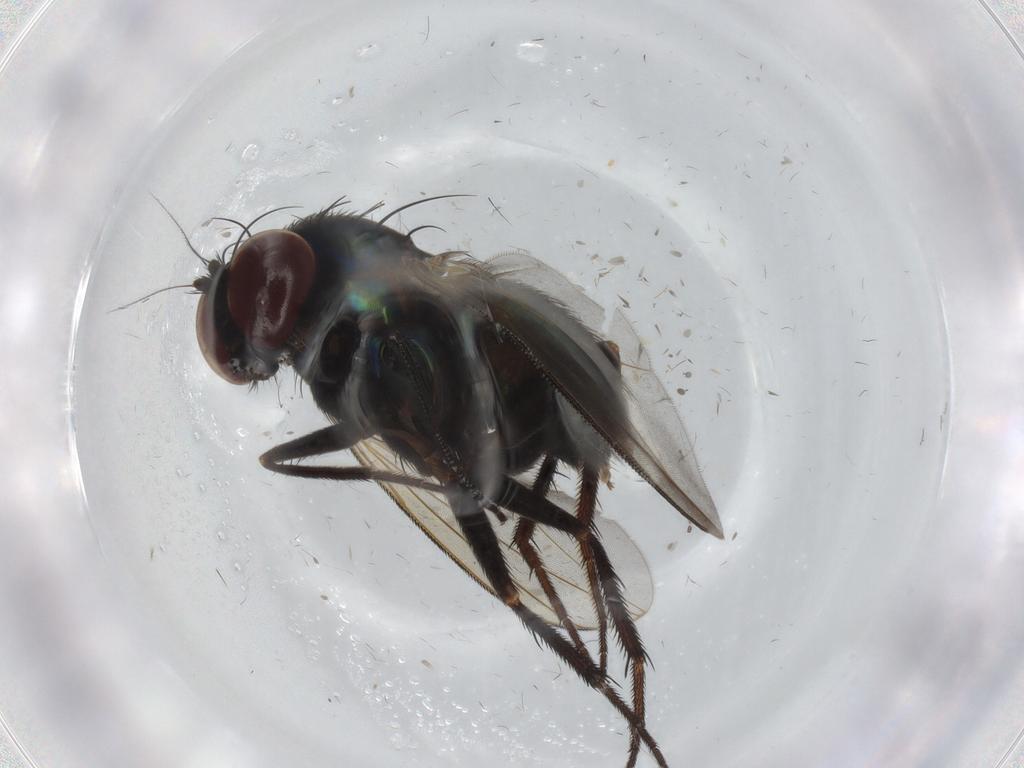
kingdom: Animalia
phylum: Arthropoda
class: Insecta
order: Diptera
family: Dolichopodidae
